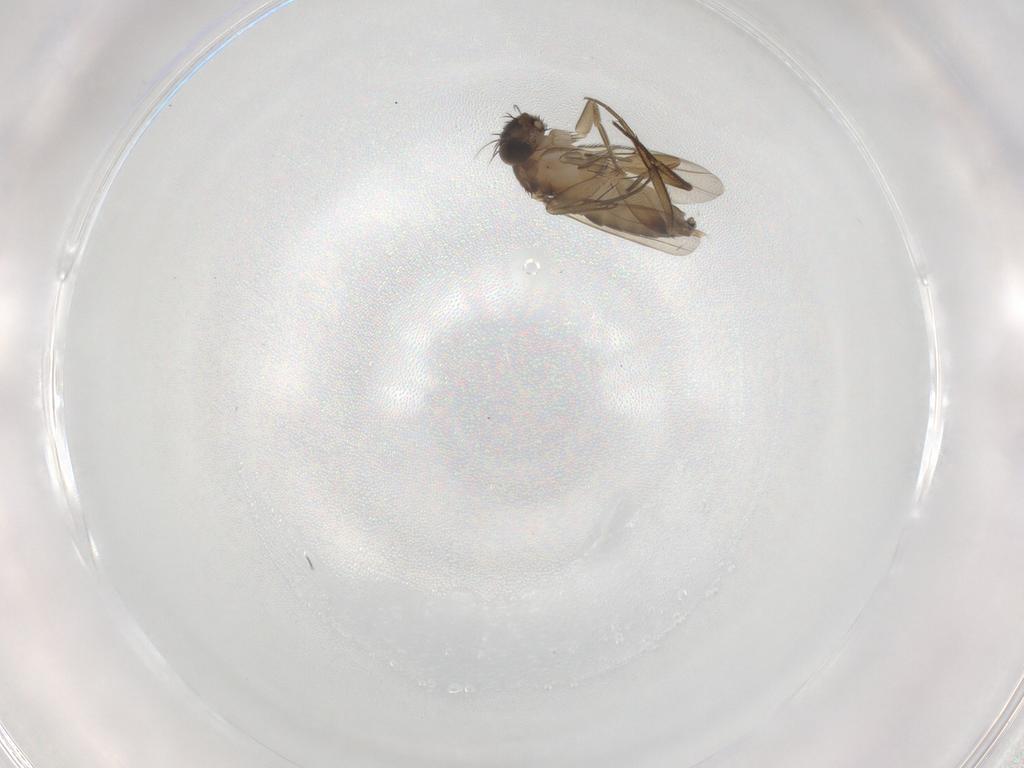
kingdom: Animalia
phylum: Arthropoda
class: Insecta
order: Diptera
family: Phoridae
